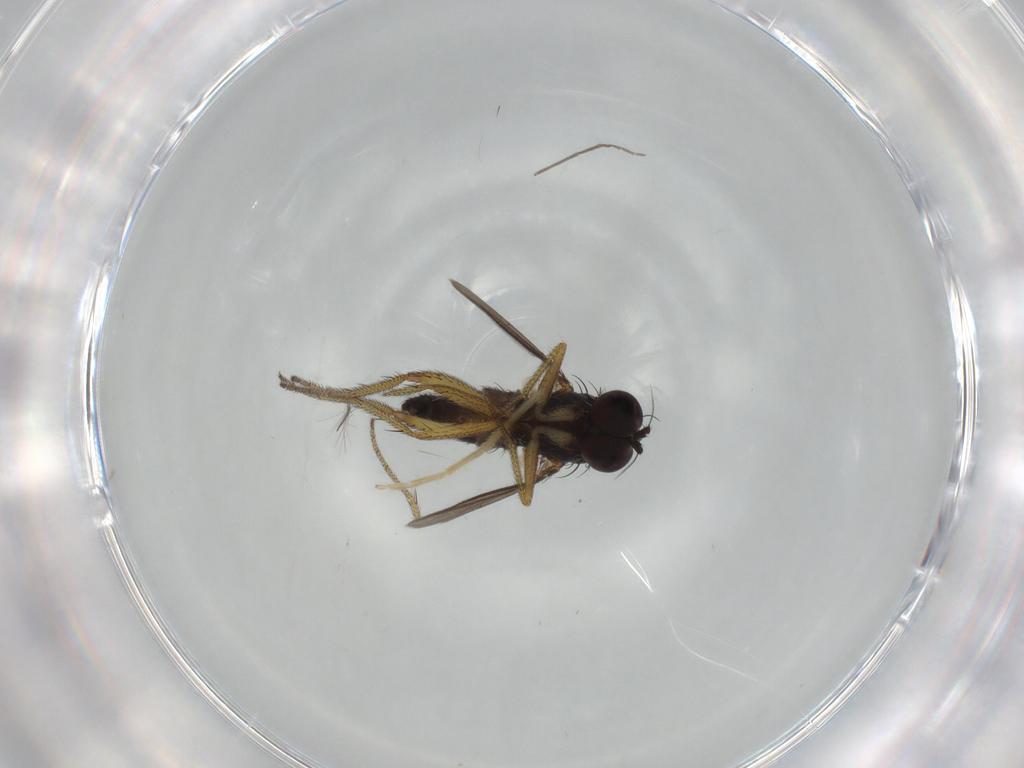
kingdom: Animalia
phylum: Arthropoda
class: Insecta
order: Diptera
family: Dolichopodidae
